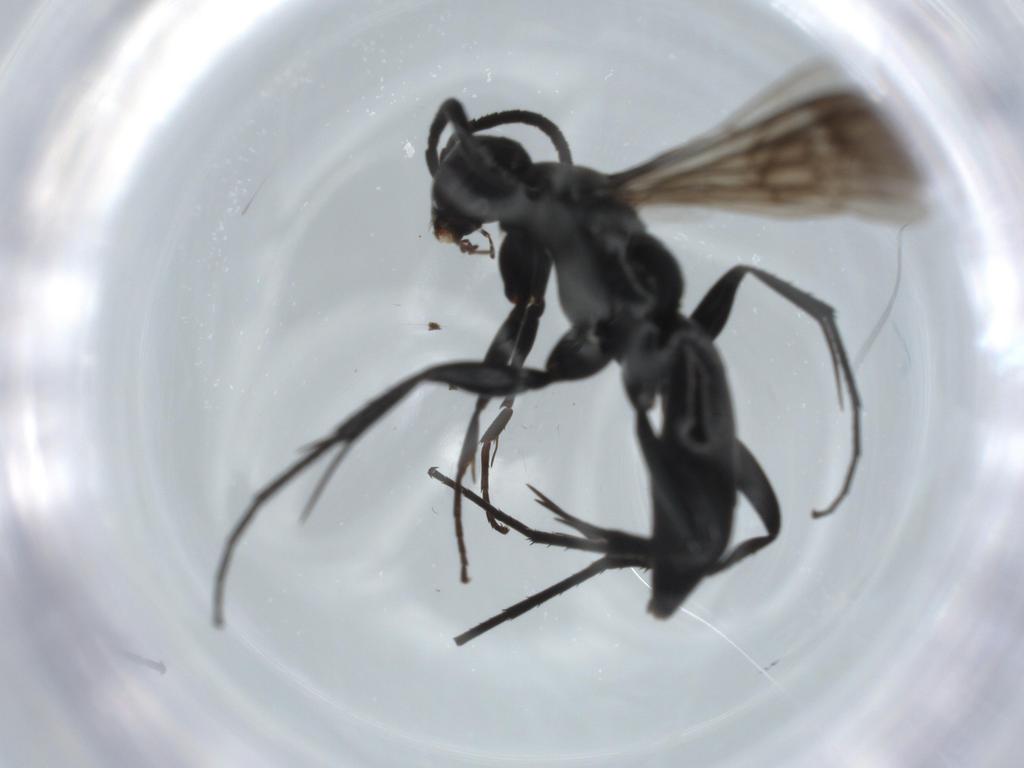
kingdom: Animalia
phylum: Arthropoda
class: Insecta
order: Hymenoptera
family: Pompilidae
